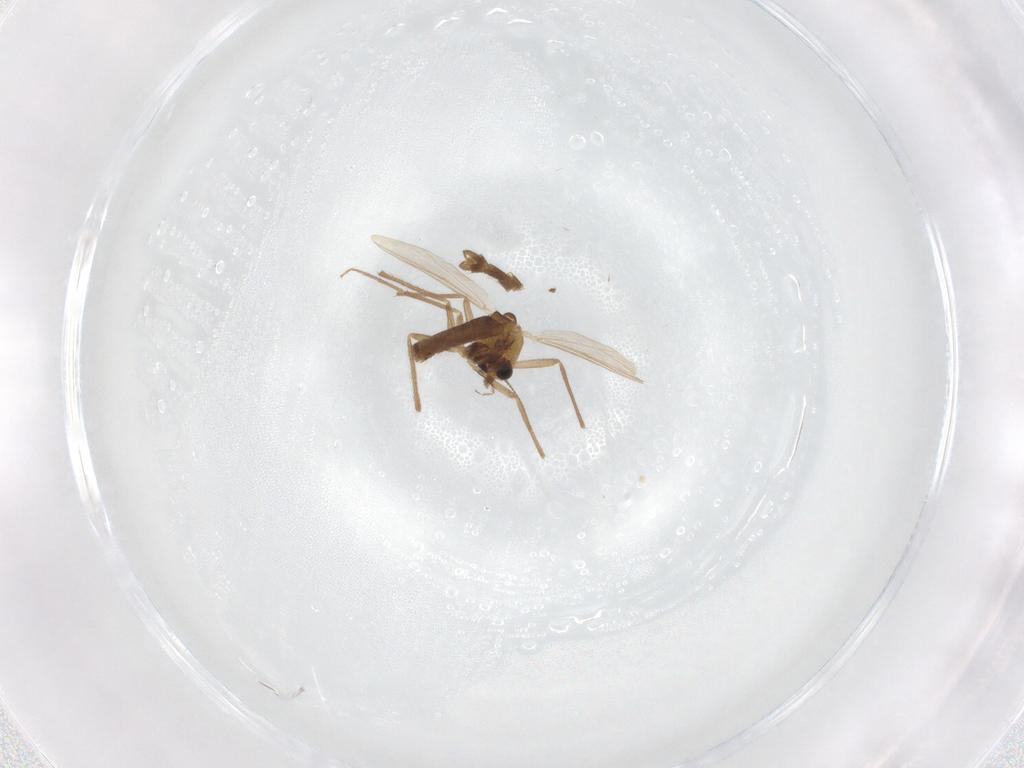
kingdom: Animalia
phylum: Arthropoda
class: Insecta
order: Diptera
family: Chironomidae
